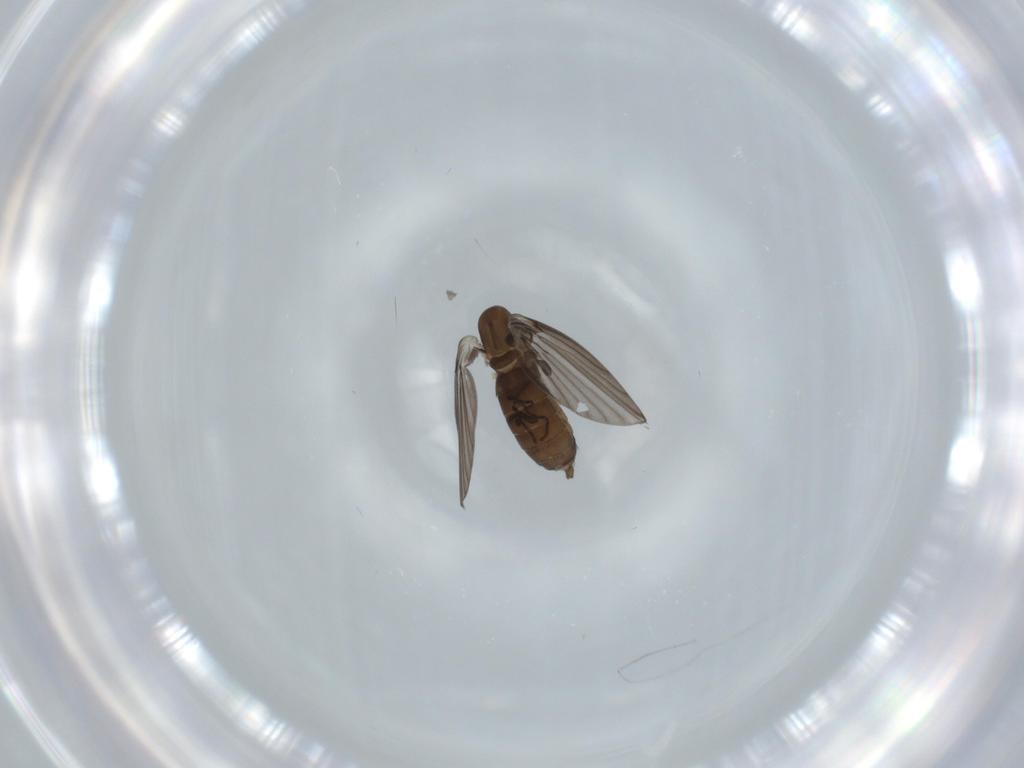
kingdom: Animalia
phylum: Arthropoda
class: Insecta
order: Diptera
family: Psychodidae
